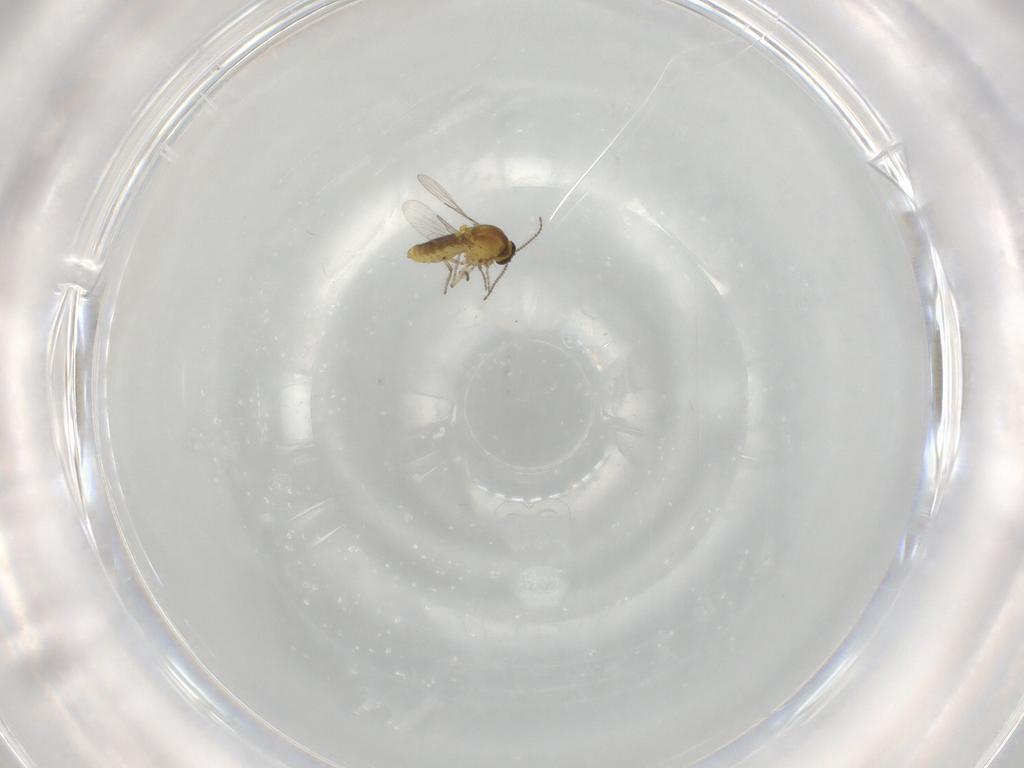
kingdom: Animalia
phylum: Arthropoda
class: Insecta
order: Diptera
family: Ceratopogonidae
